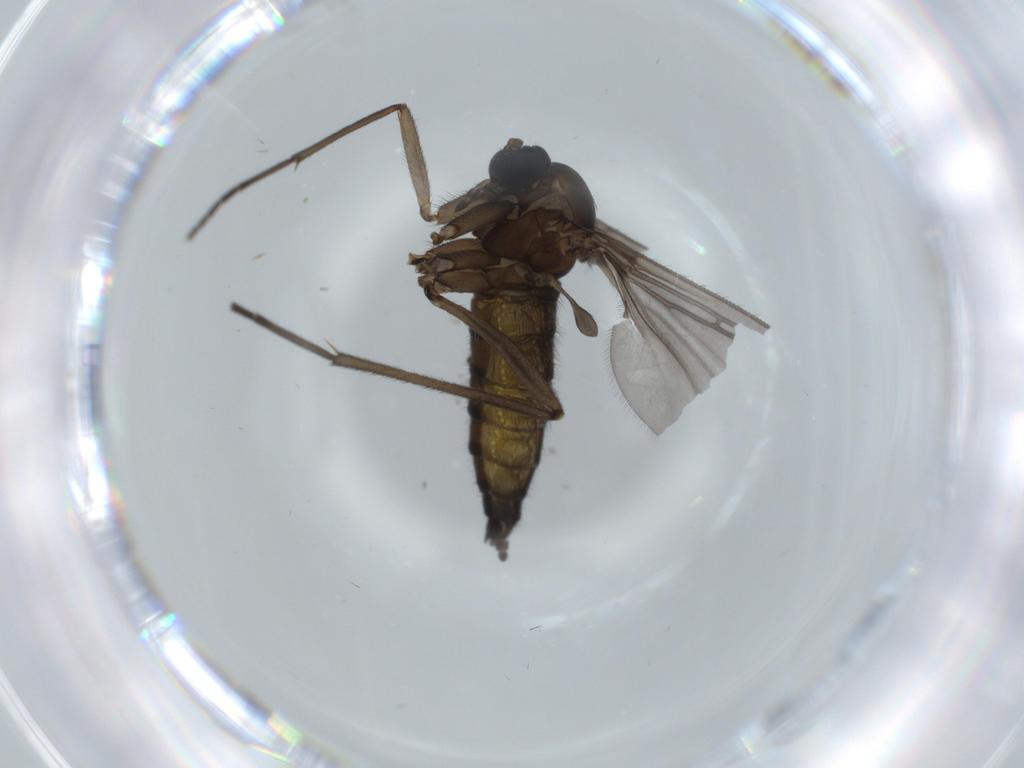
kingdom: Animalia
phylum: Arthropoda
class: Insecta
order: Diptera
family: Sciaridae
